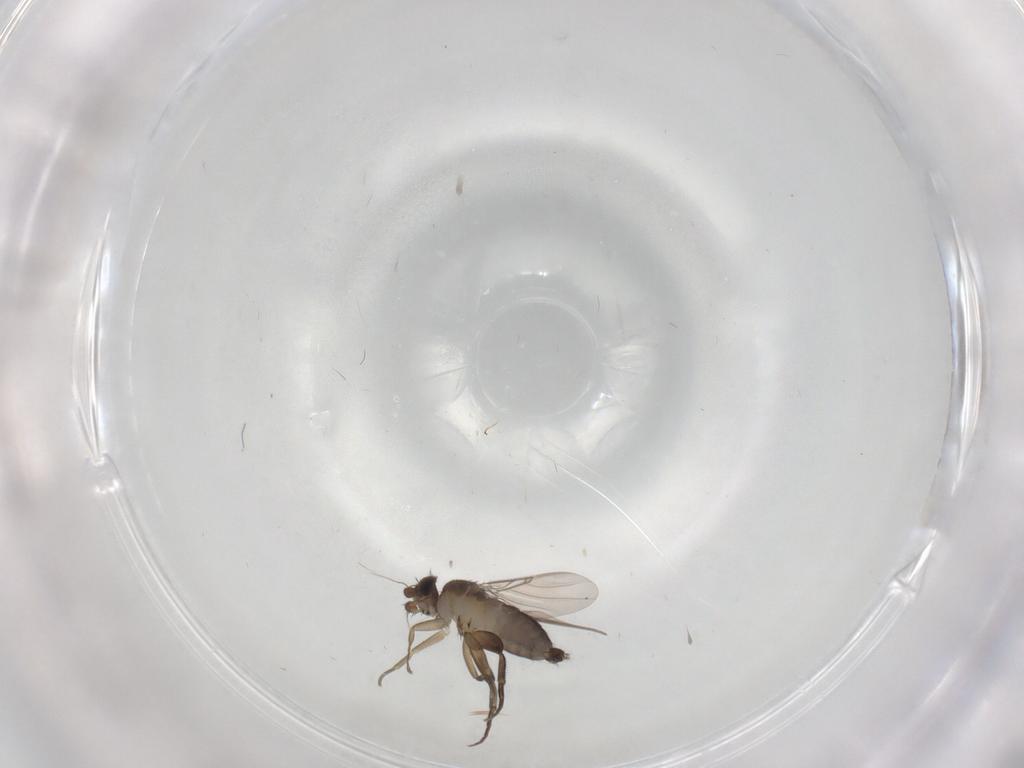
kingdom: Animalia
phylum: Arthropoda
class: Insecta
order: Diptera
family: Phoridae
